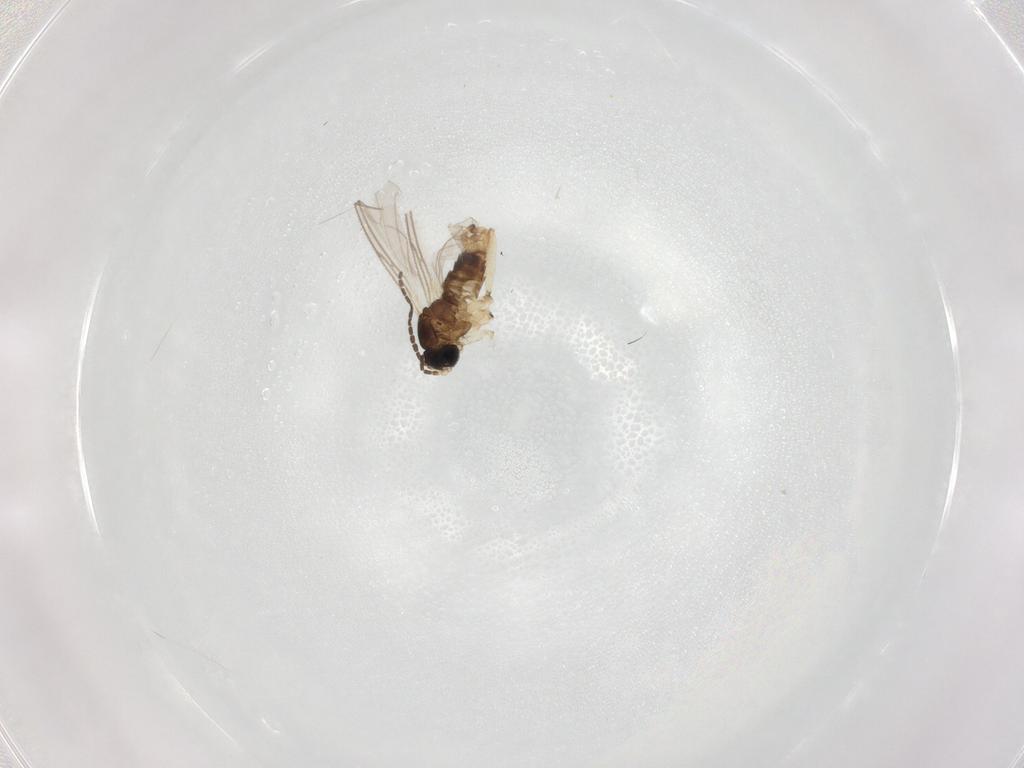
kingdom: Animalia
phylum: Arthropoda
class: Insecta
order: Diptera
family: Sciaridae
